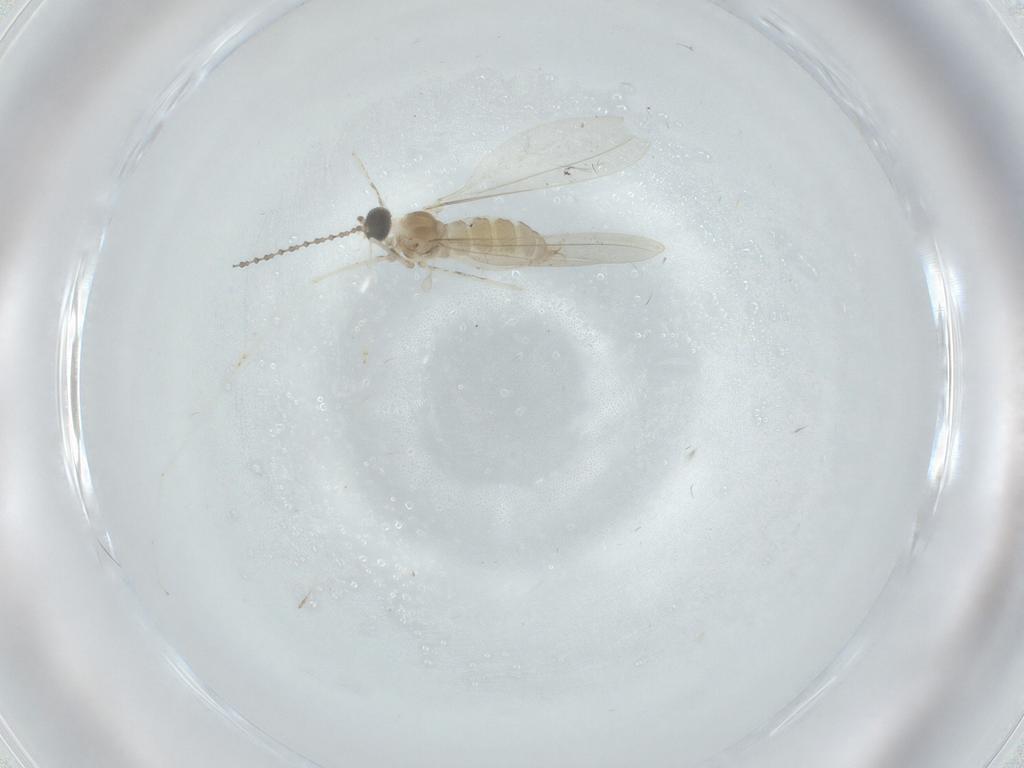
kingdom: Animalia
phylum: Arthropoda
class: Insecta
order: Diptera
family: Cecidomyiidae
